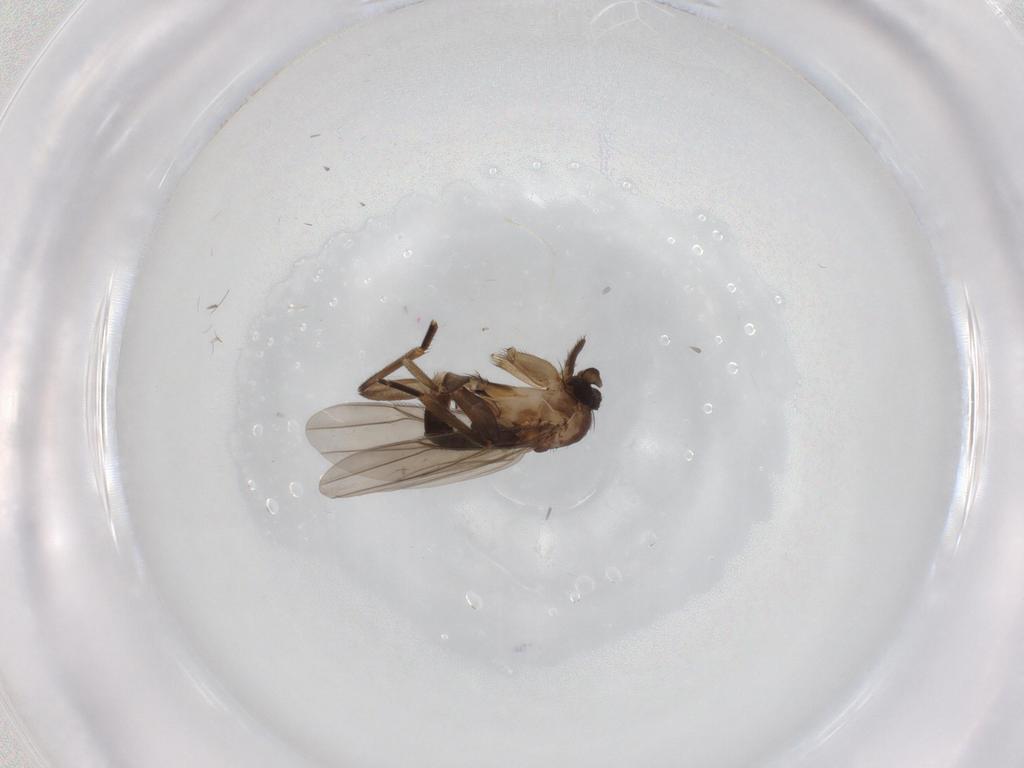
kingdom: Animalia
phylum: Arthropoda
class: Insecta
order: Diptera
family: Phoridae
